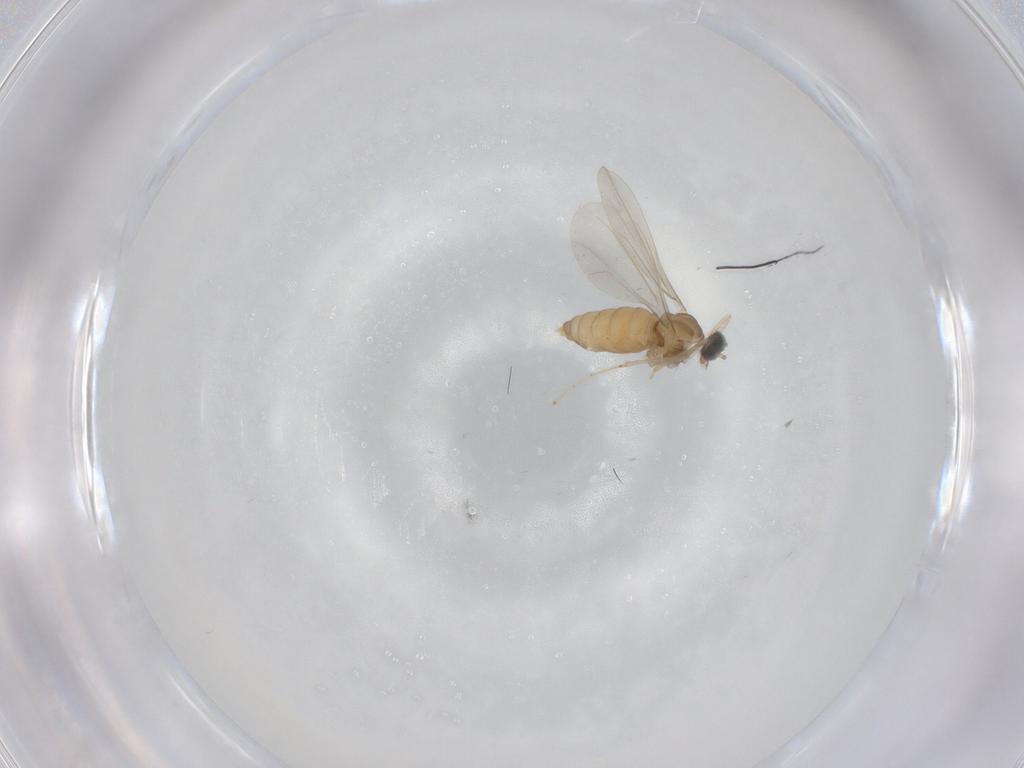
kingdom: Animalia
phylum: Arthropoda
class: Insecta
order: Diptera
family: Cecidomyiidae
